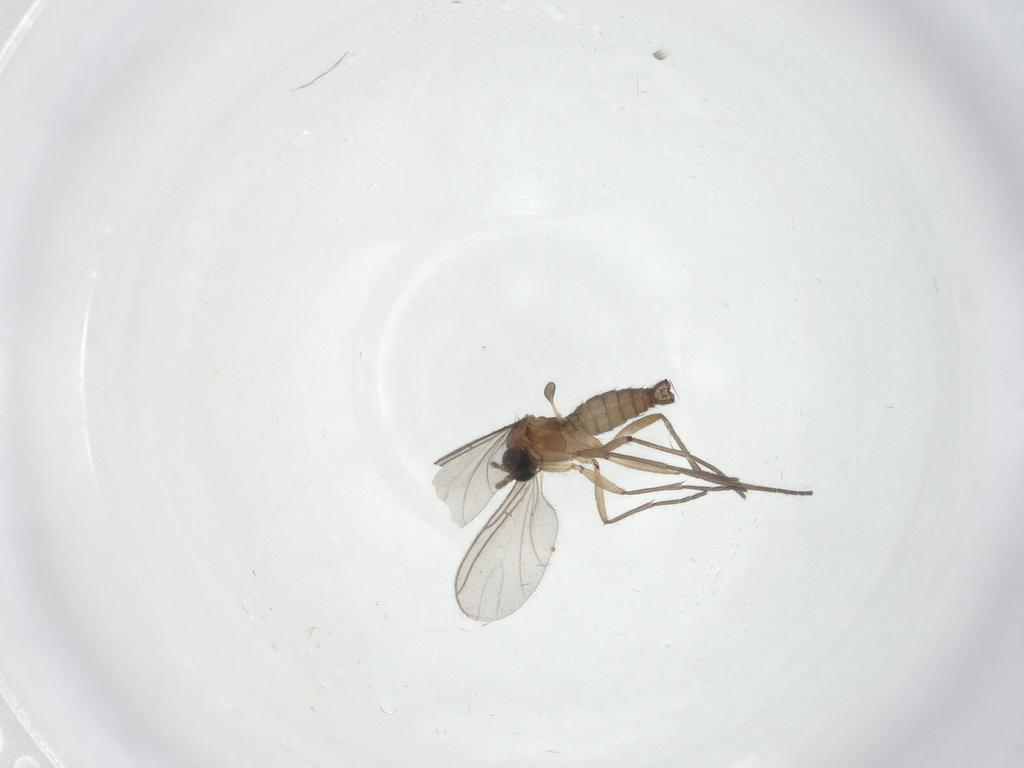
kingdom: Animalia
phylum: Arthropoda
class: Insecta
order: Diptera
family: Sciaridae
